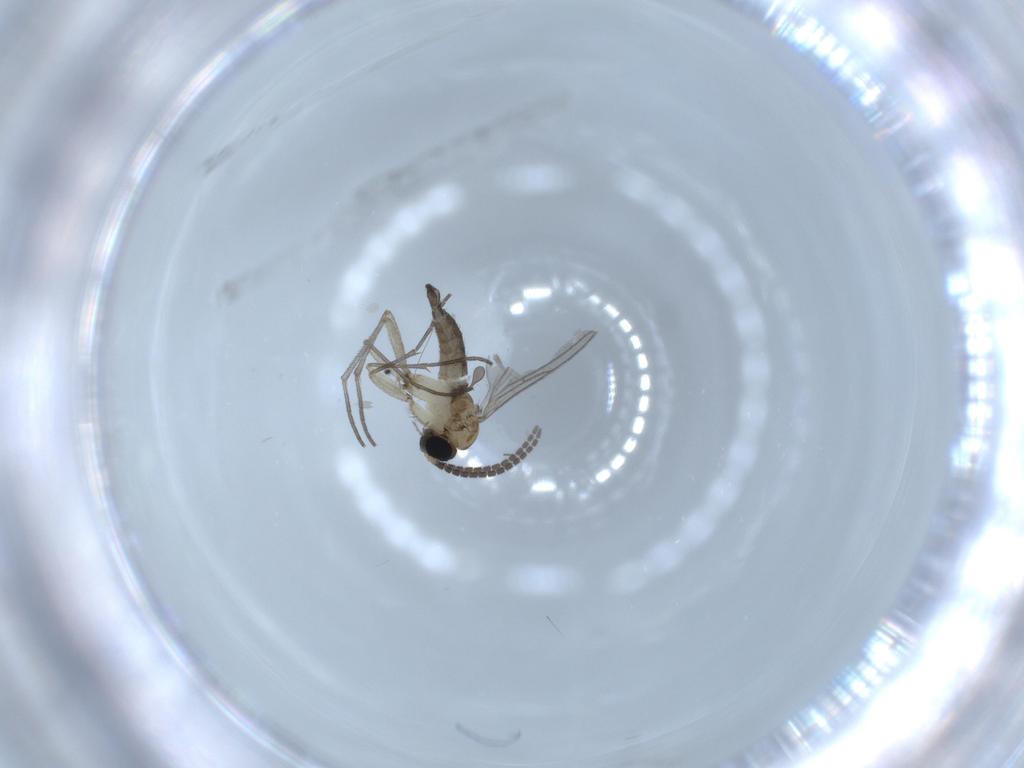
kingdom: Animalia
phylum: Arthropoda
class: Insecta
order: Diptera
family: Sciaridae
